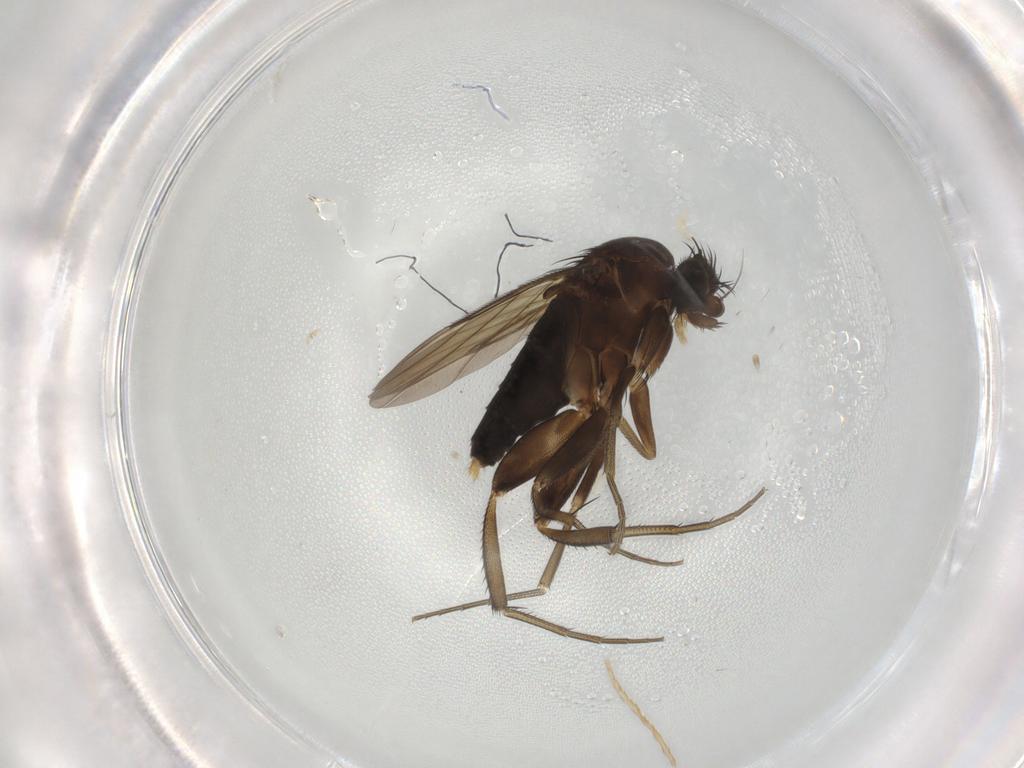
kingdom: Animalia
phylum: Arthropoda
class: Insecta
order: Diptera
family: Phoridae
